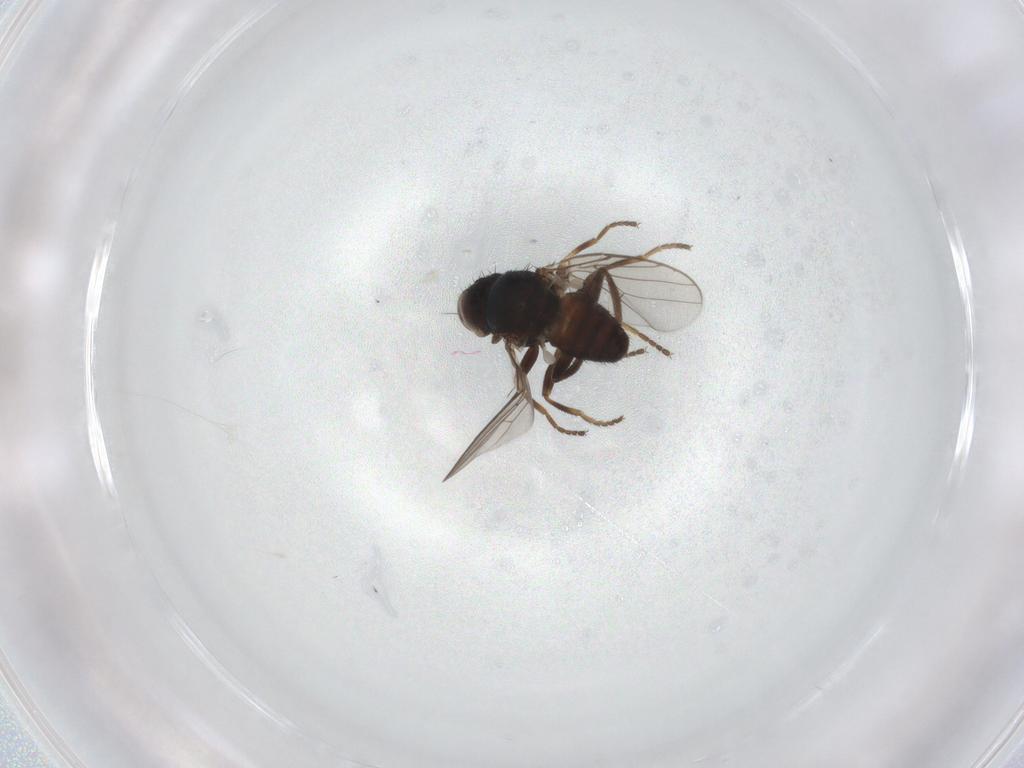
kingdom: Animalia
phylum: Arthropoda
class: Insecta
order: Diptera
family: Chloropidae
